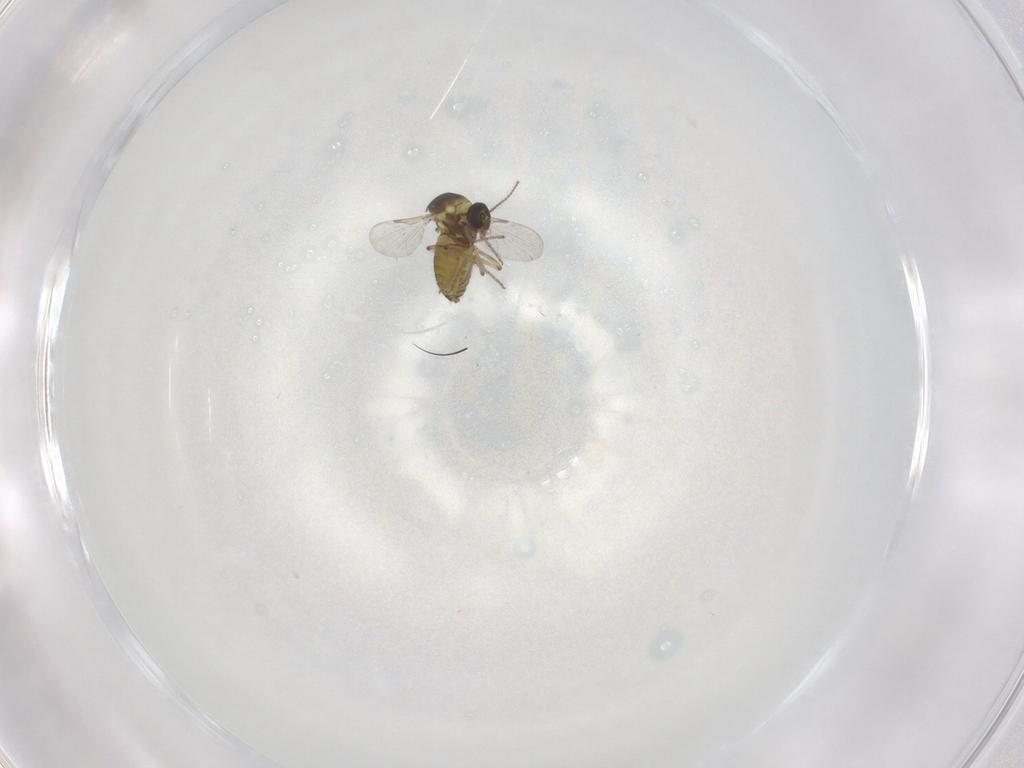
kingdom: Animalia
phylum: Arthropoda
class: Insecta
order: Diptera
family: Ceratopogonidae
